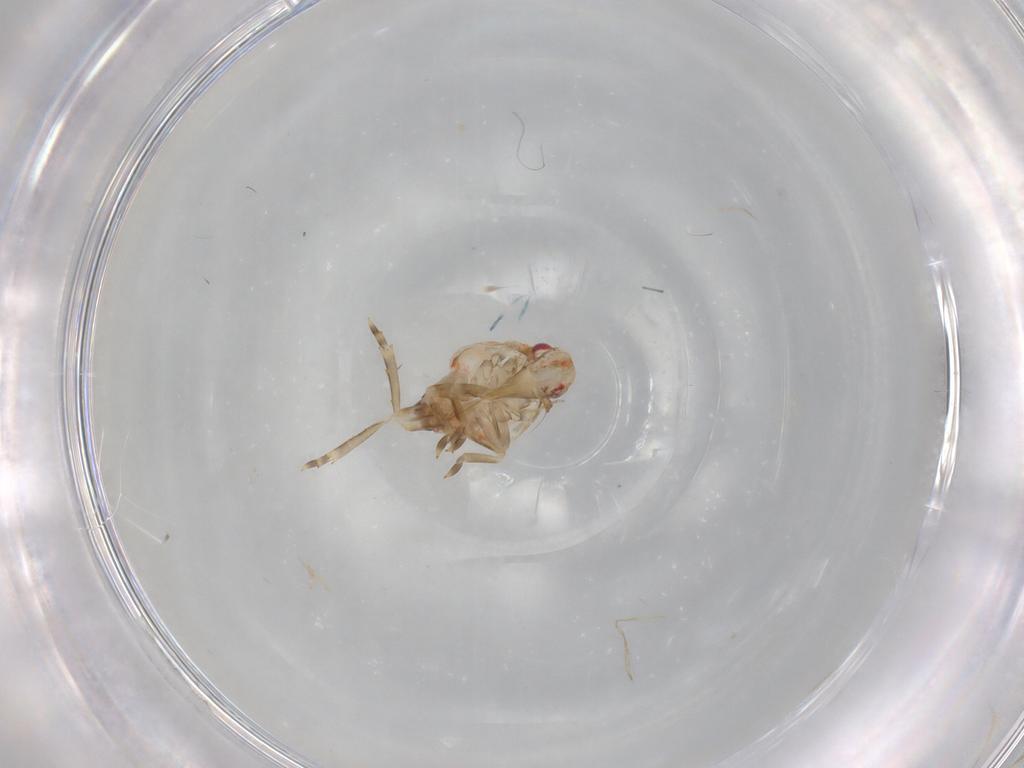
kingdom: Animalia
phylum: Arthropoda
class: Insecta
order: Hemiptera
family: Flatidae
